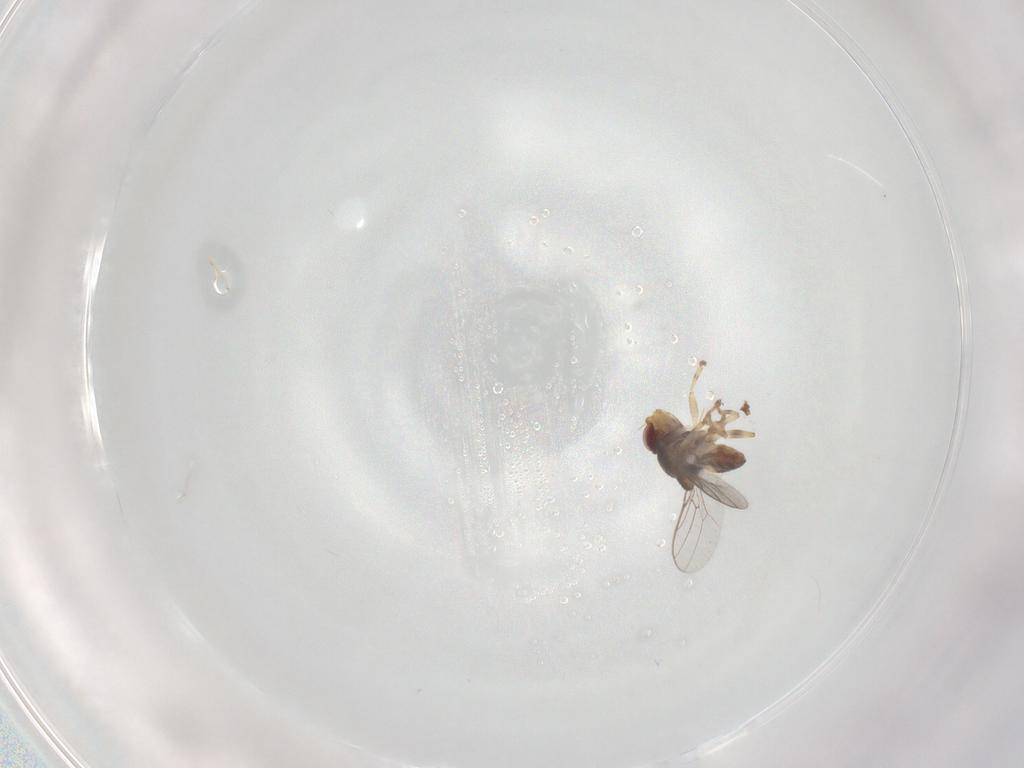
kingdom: Animalia
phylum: Arthropoda
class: Insecta
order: Diptera
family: Chloropidae
